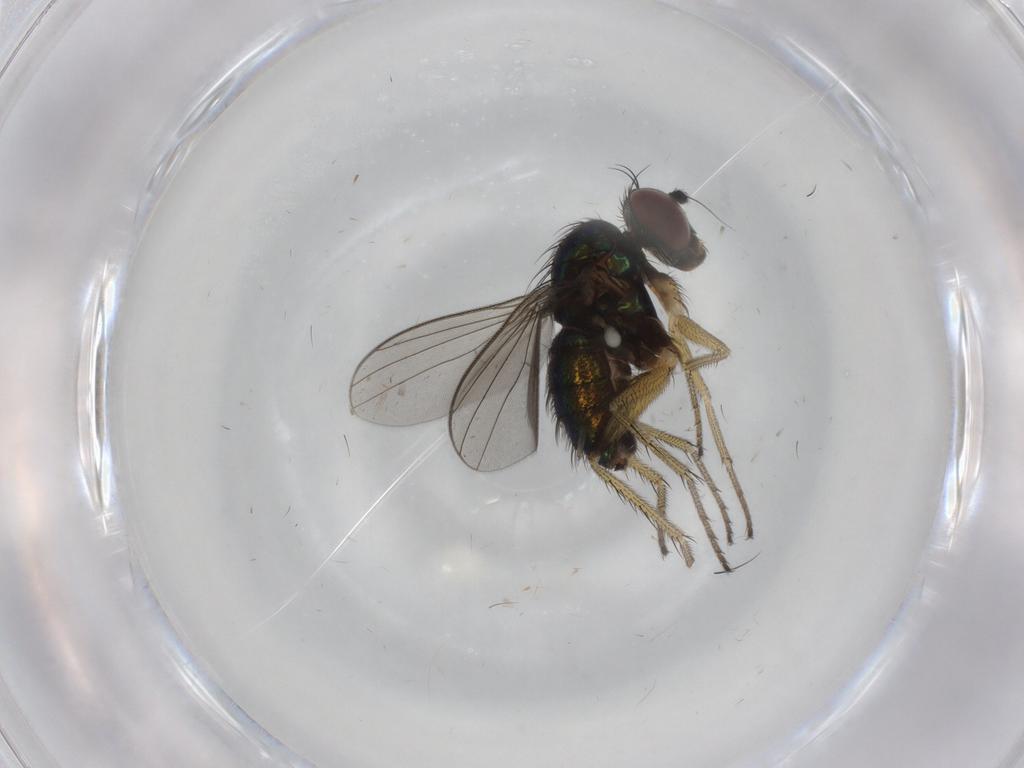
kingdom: Animalia
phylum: Arthropoda
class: Insecta
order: Diptera
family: Dolichopodidae
